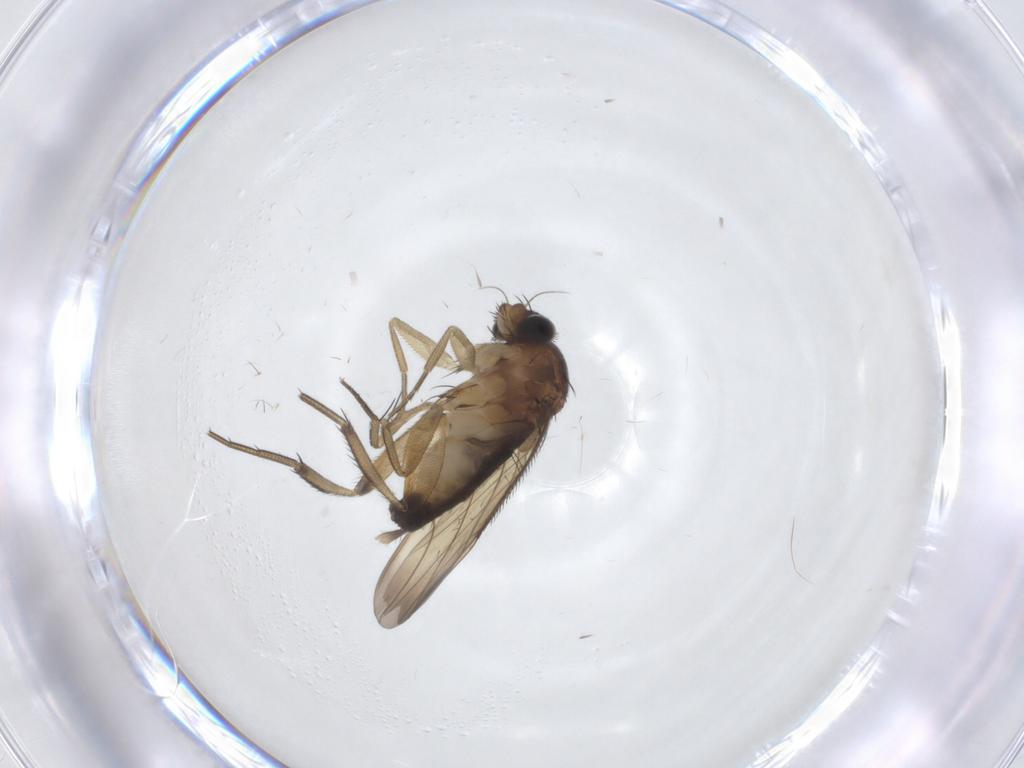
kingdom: Animalia
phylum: Arthropoda
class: Insecta
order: Diptera
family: Phoridae
